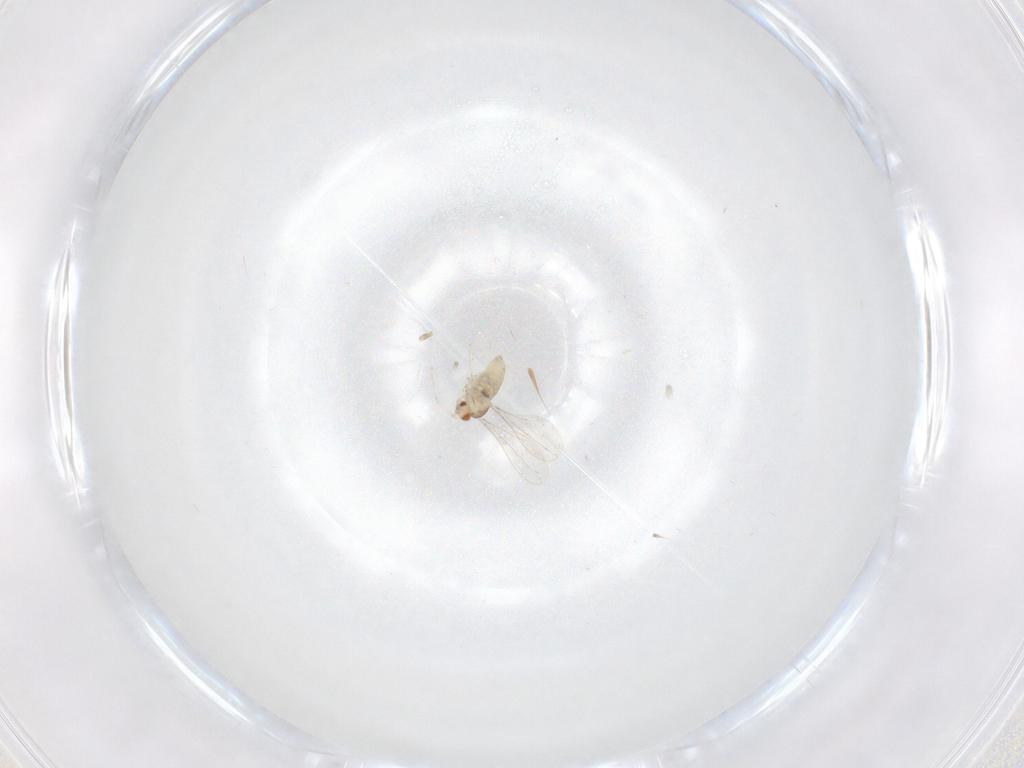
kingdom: Animalia
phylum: Arthropoda
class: Insecta
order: Diptera
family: Cecidomyiidae
